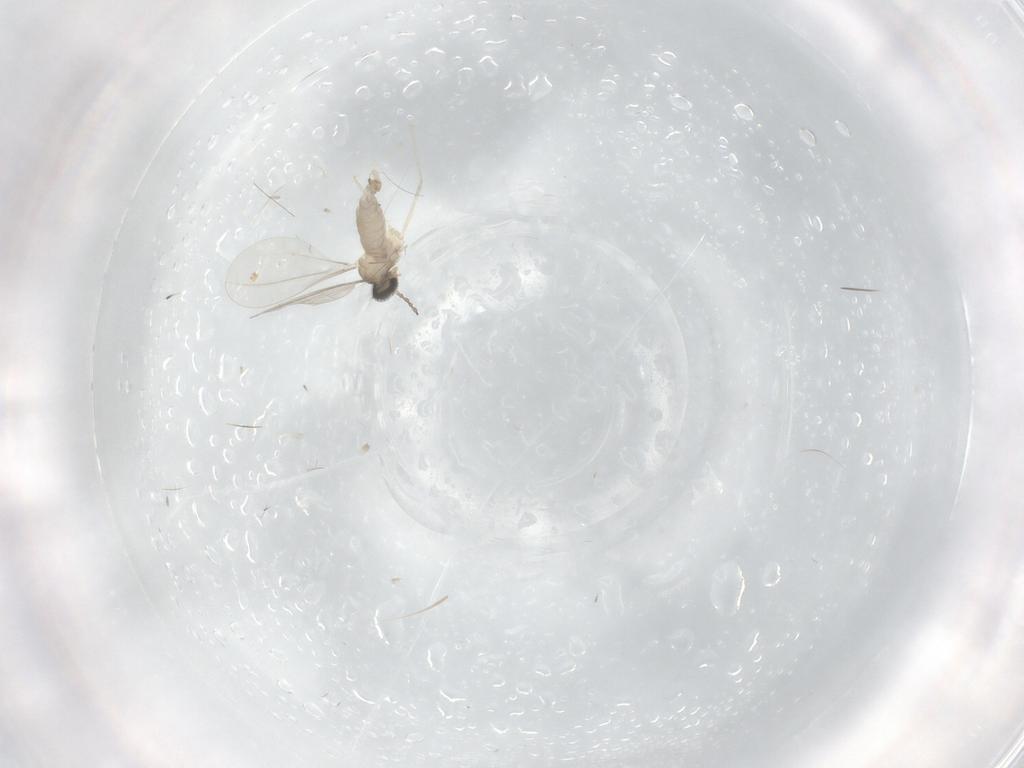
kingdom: Animalia
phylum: Arthropoda
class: Insecta
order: Diptera
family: Cecidomyiidae
